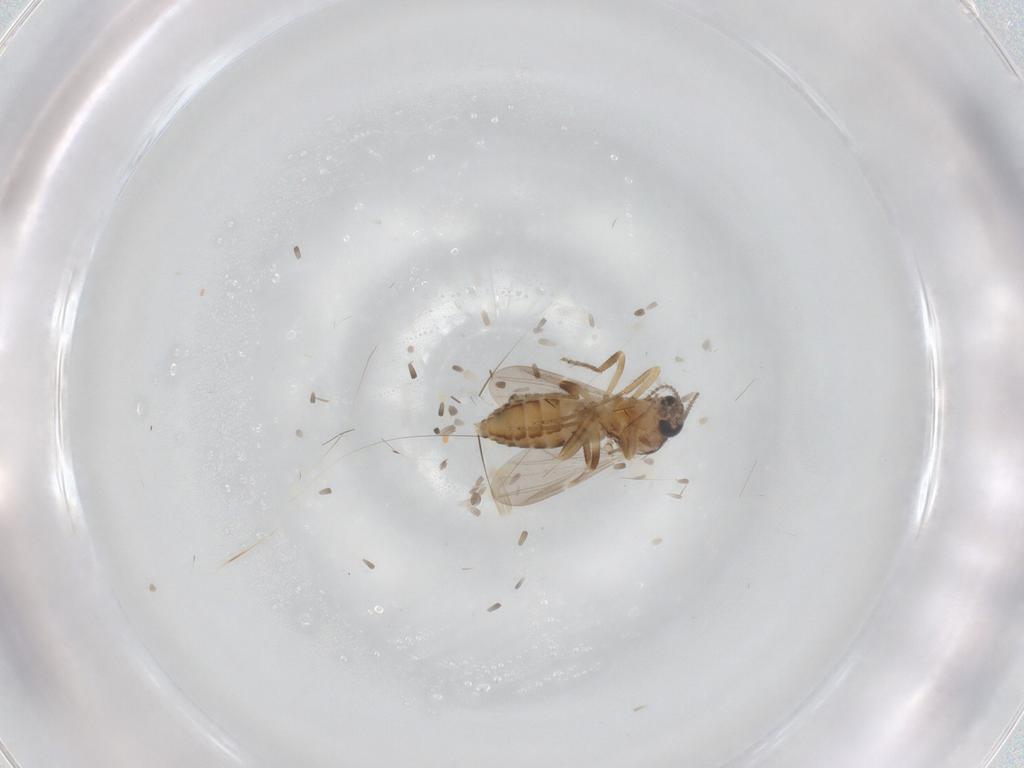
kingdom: Animalia
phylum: Arthropoda
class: Insecta
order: Diptera
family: Ceratopogonidae
